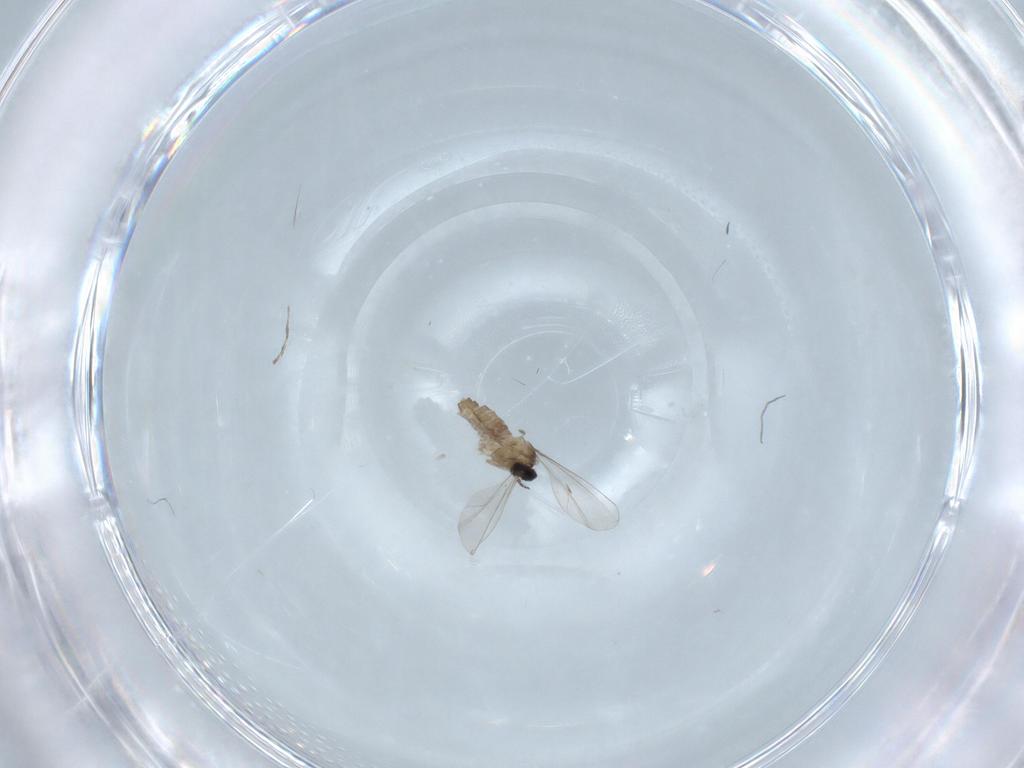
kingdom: Animalia
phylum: Arthropoda
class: Insecta
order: Diptera
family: Cecidomyiidae
